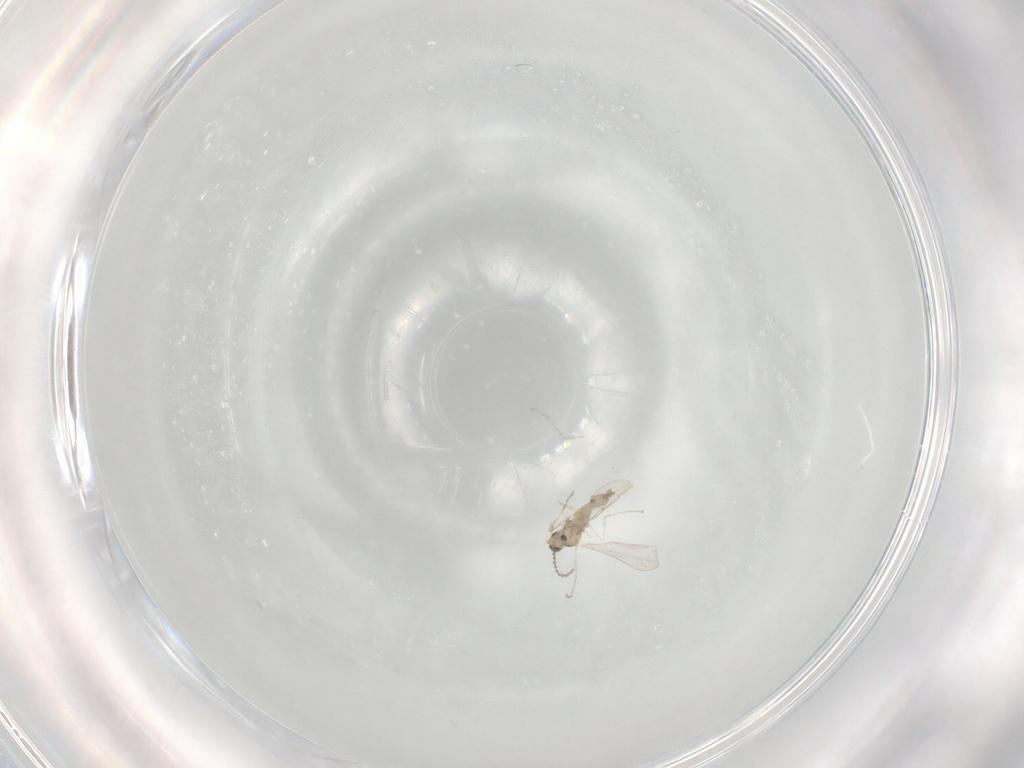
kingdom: Animalia
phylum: Arthropoda
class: Insecta
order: Diptera
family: Cecidomyiidae
